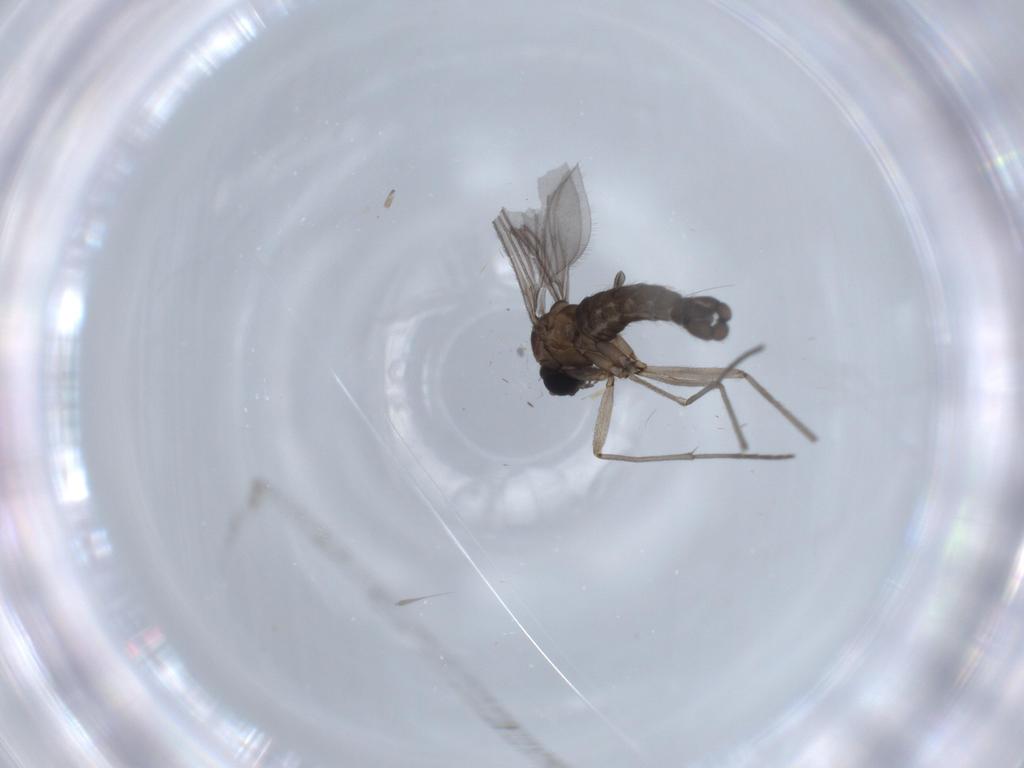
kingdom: Animalia
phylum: Arthropoda
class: Insecta
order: Diptera
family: Sciaridae
